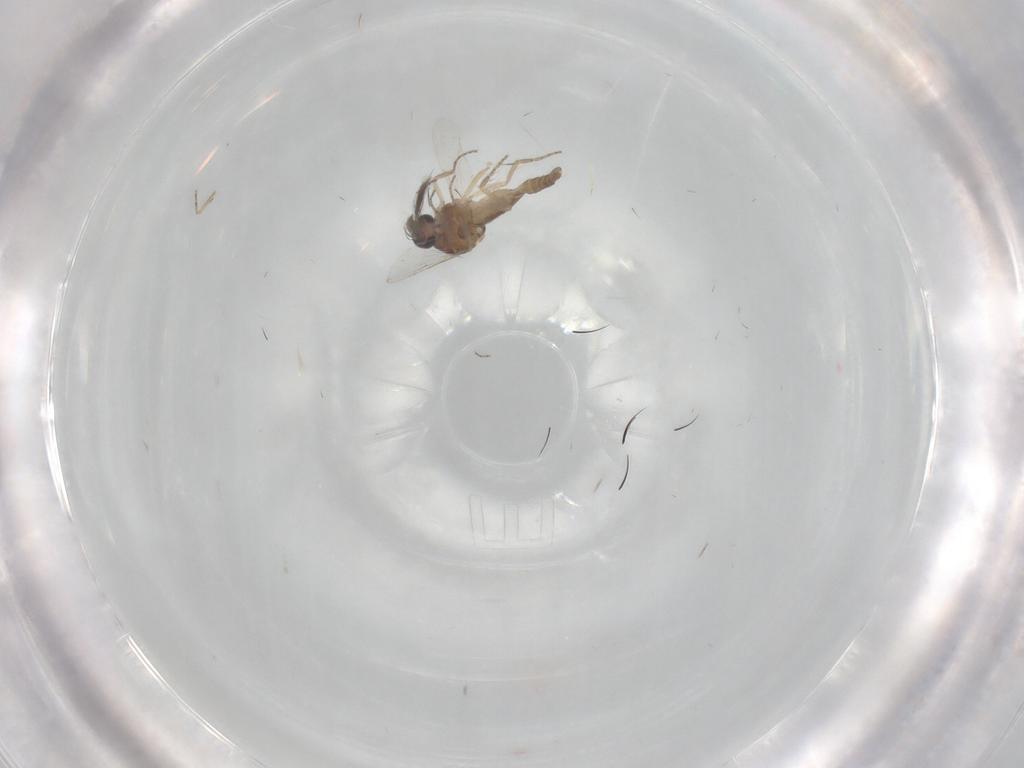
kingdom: Animalia
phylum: Arthropoda
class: Insecta
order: Diptera
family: Ceratopogonidae
